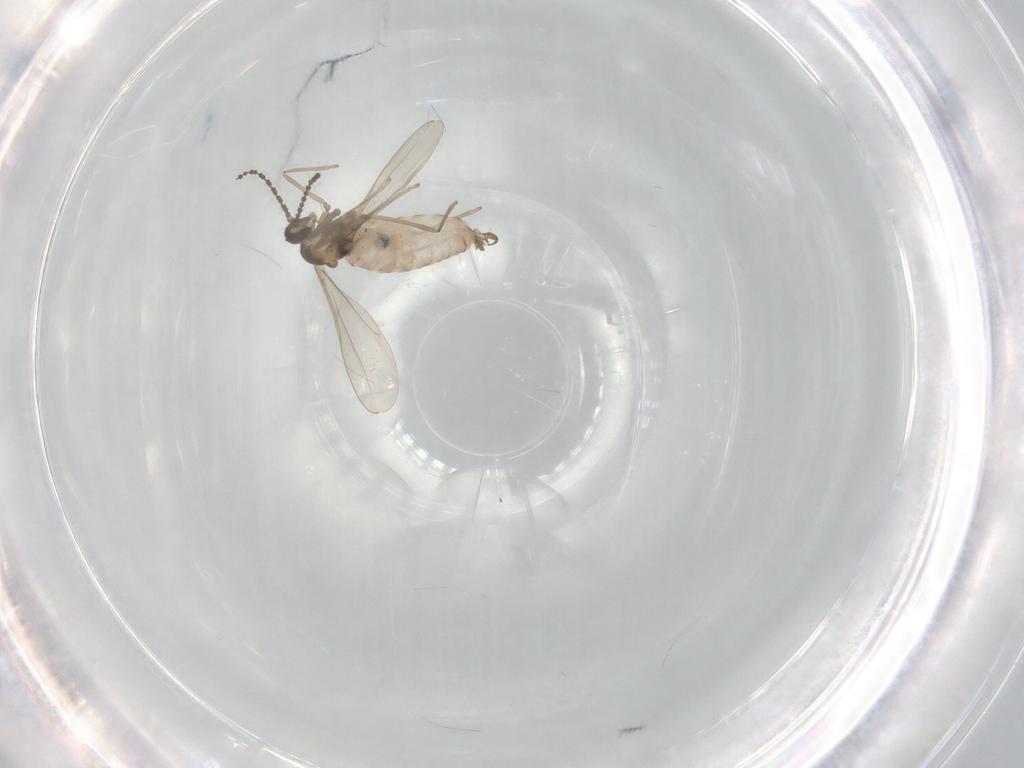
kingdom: Animalia
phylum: Arthropoda
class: Insecta
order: Diptera
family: Cecidomyiidae
